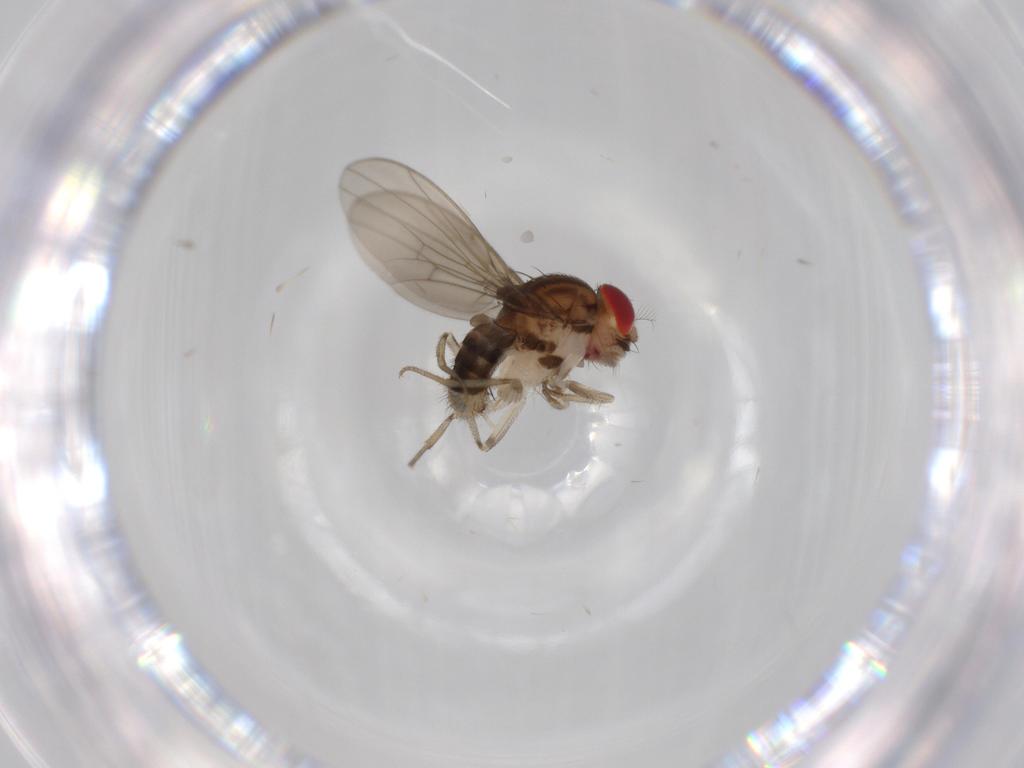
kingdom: Animalia
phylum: Arthropoda
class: Insecta
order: Diptera
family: Drosophilidae
